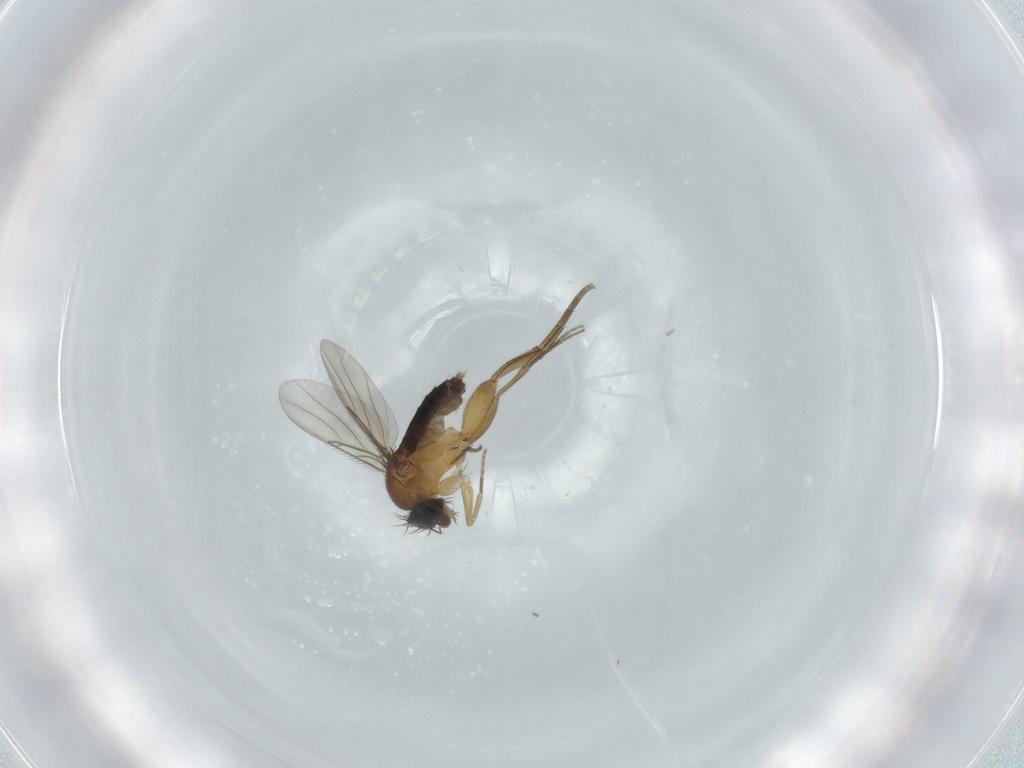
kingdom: Animalia
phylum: Arthropoda
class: Insecta
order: Diptera
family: Phoridae
